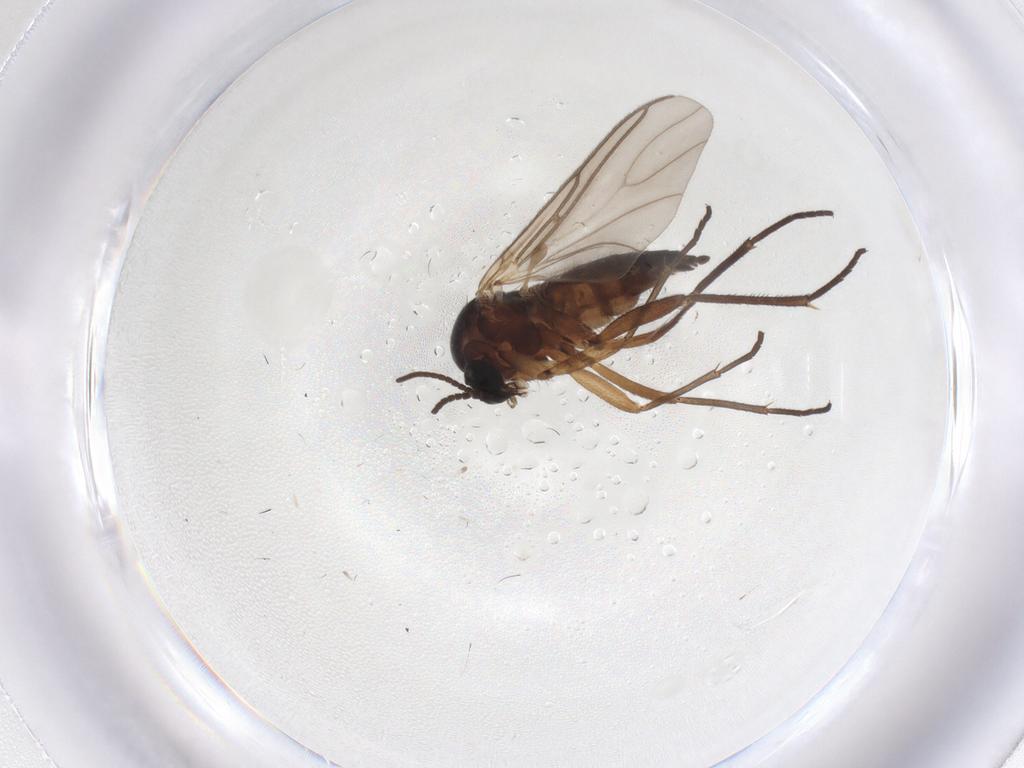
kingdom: Animalia
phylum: Arthropoda
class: Insecta
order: Diptera
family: Sciaridae
